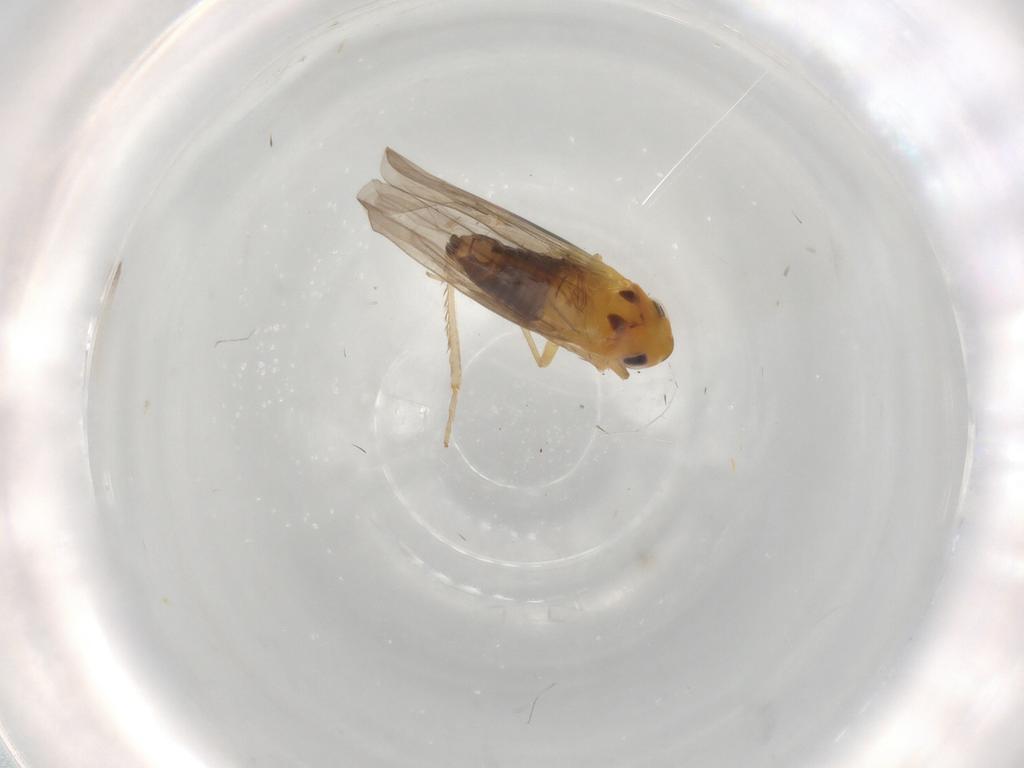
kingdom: Animalia
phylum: Arthropoda
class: Insecta
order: Hemiptera
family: Cicadellidae
